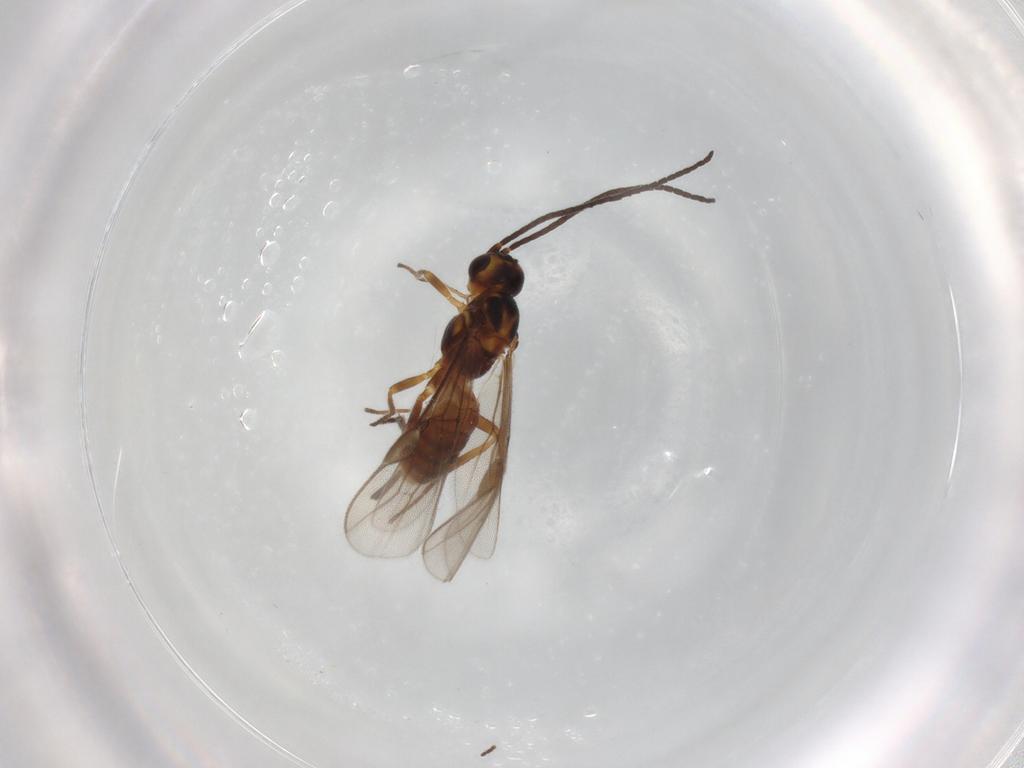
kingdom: Animalia
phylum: Arthropoda
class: Insecta
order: Hymenoptera
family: Braconidae
